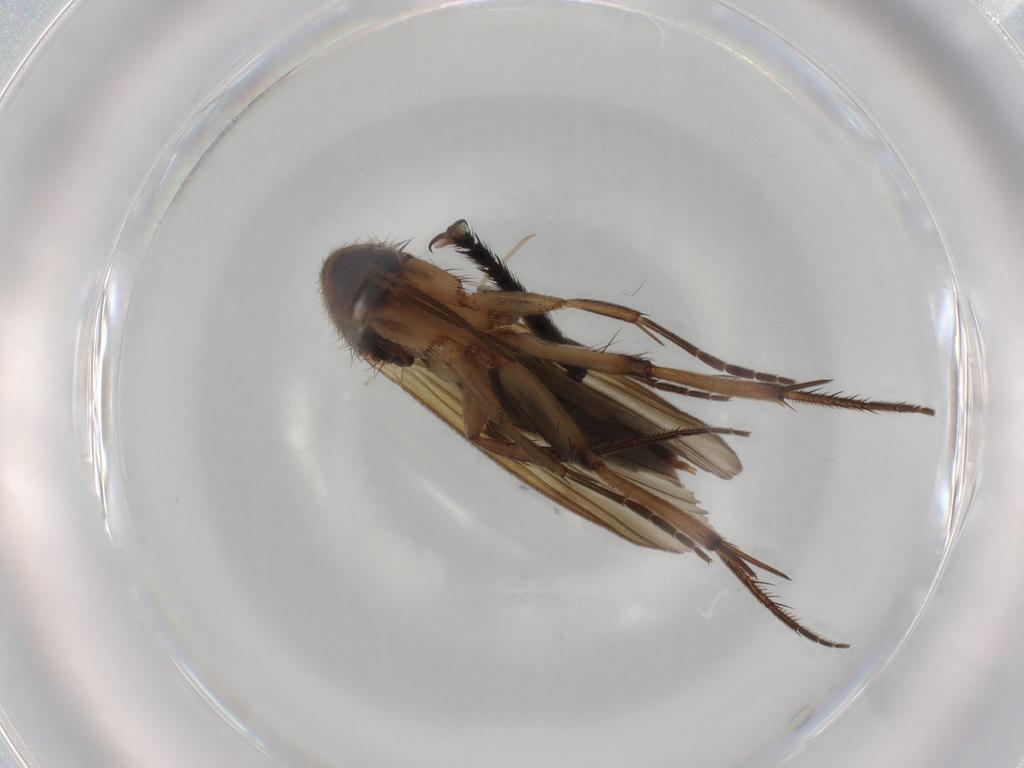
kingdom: Animalia
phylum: Arthropoda
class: Insecta
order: Diptera
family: Mycetophilidae
